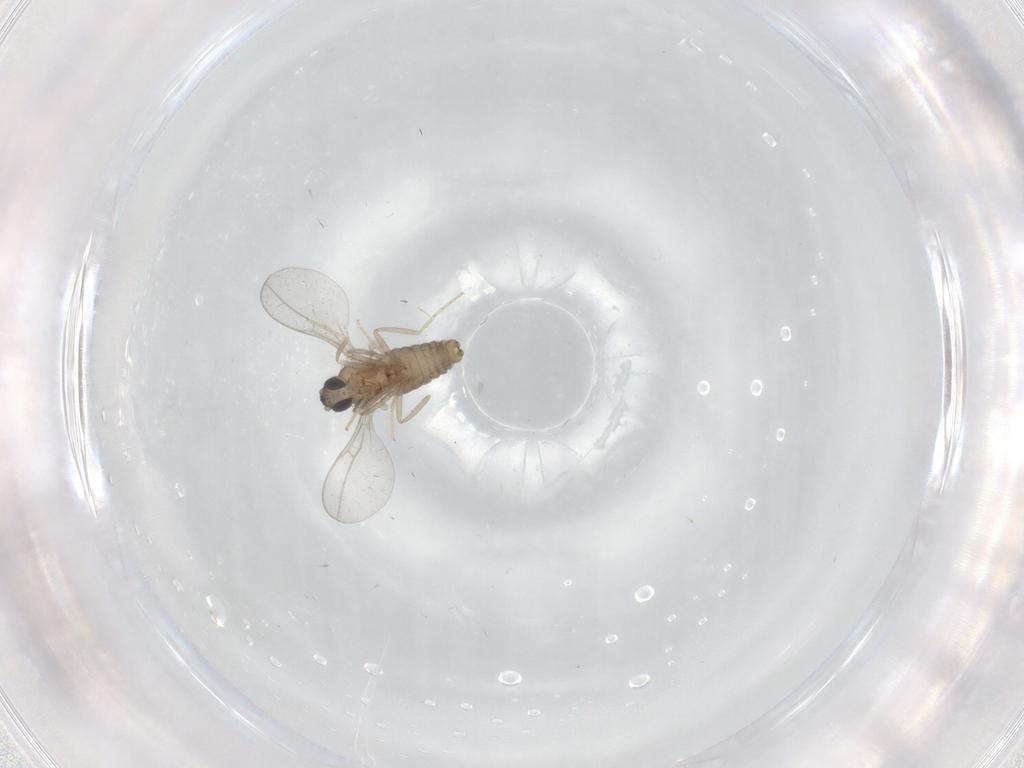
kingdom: Animalia
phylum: Arthropoda
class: Insecta
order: Diptera
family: Cecidomyiidae
